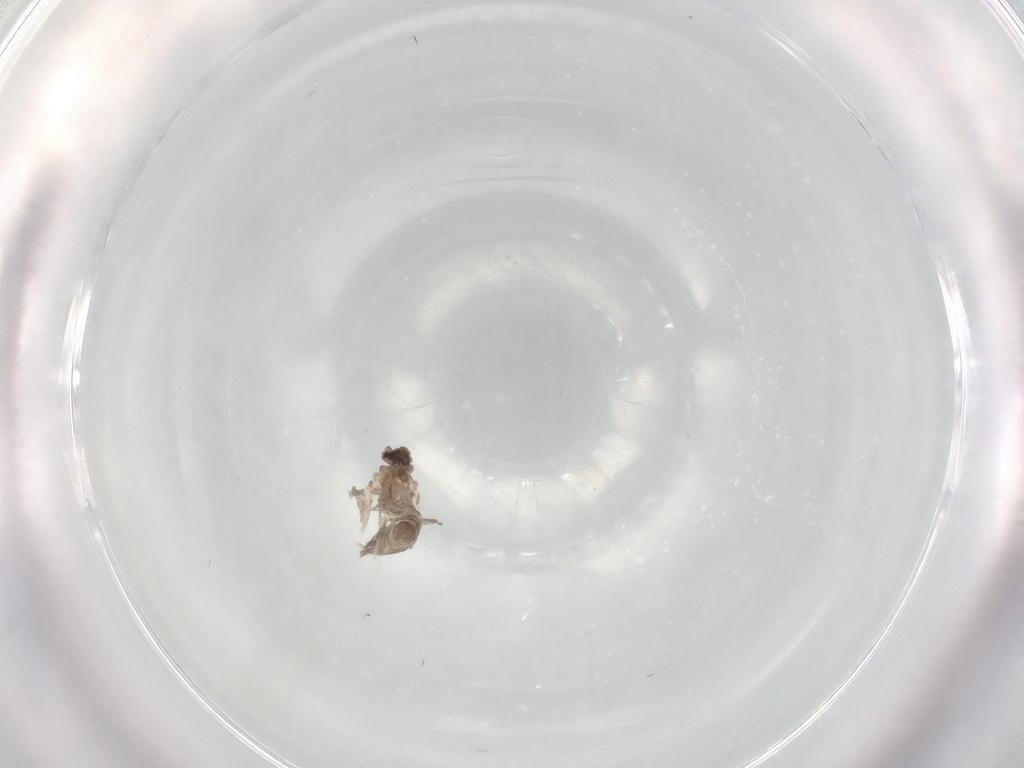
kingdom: Animalia
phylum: Arthropoda
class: Insecta
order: Diptera
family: Cecidomyiidae
